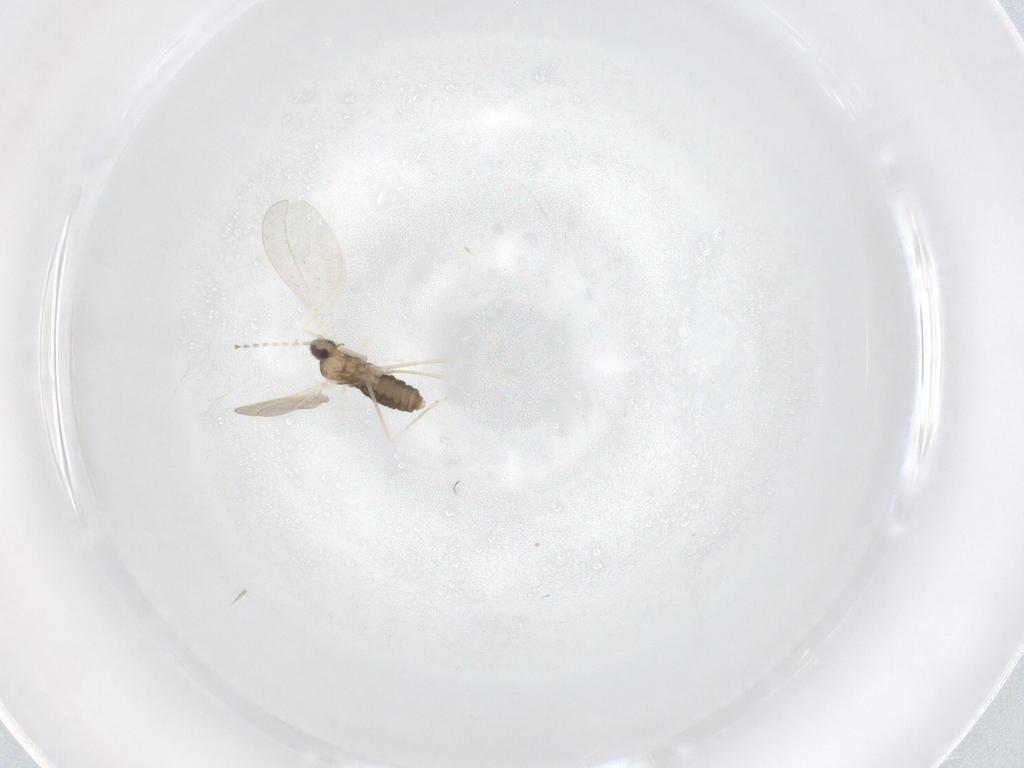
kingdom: Animalia
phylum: Arthropoda
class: Insecta
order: Diptera
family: Cecidomyiidae
